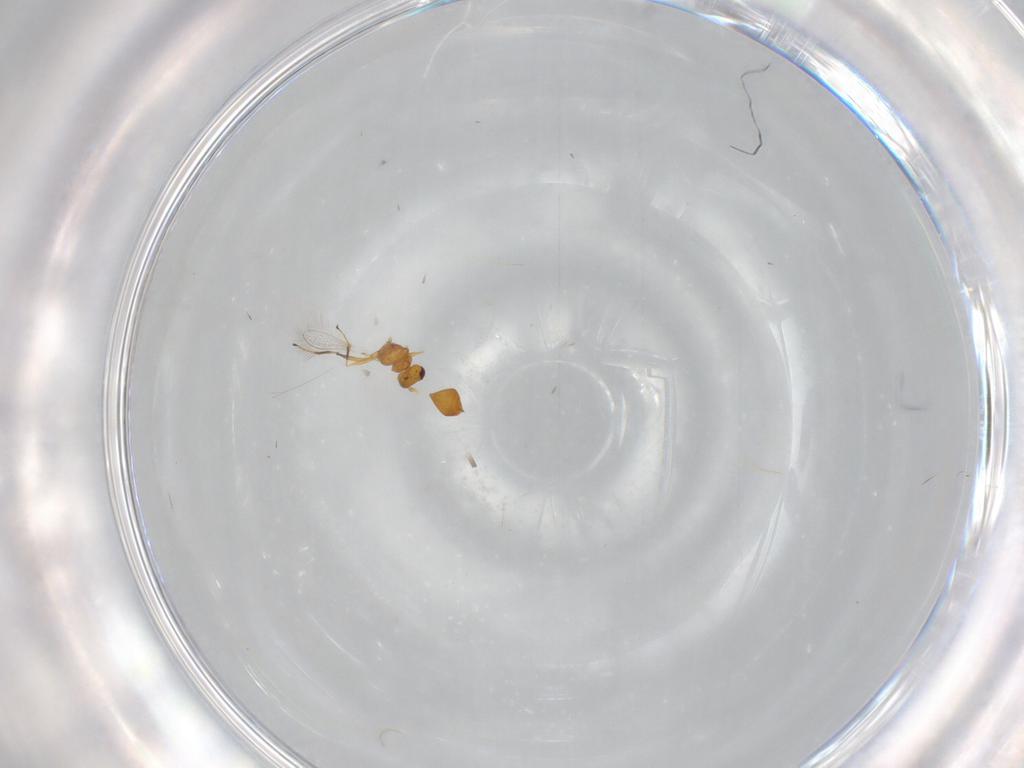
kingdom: Animalia
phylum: Arthropoda
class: Insecta
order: Hymenoptera
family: Mymaridae
